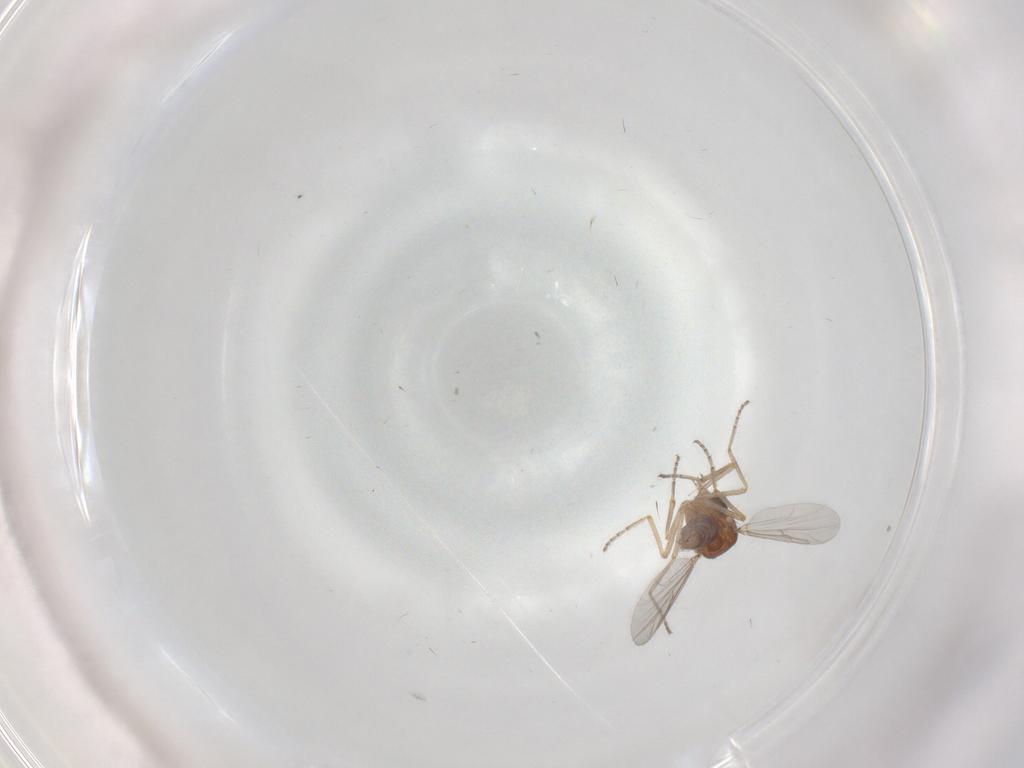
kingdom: Animalia
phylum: Arthropoda
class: Insecta
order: Diptera
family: Ceratopogonidae
